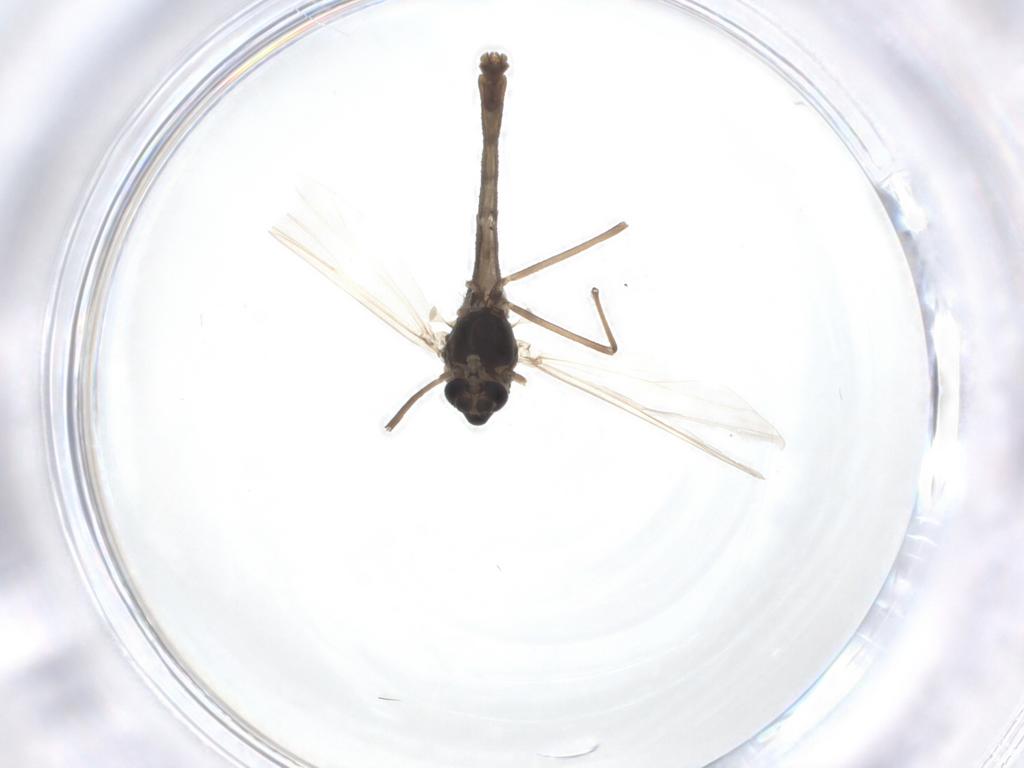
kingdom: Animalia
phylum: Arthropoda
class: Insecta
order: Diptera
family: Chironomidae
